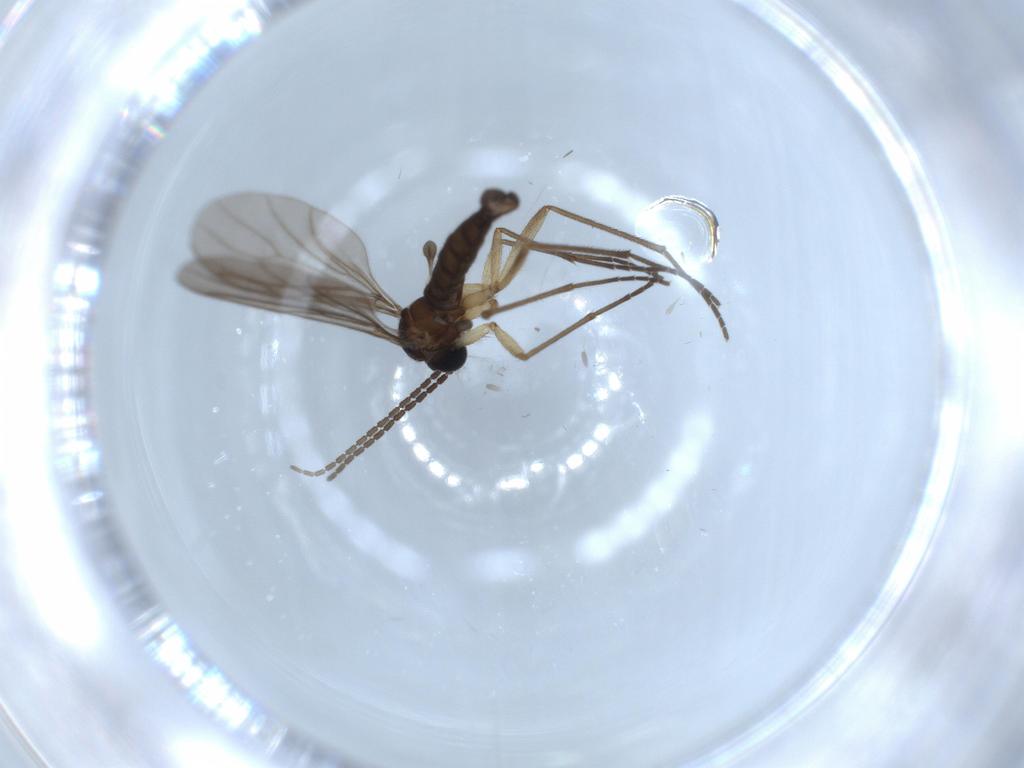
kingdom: Animalia
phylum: Arthropoda
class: Insecta
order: Diptera
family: Sciaridae
